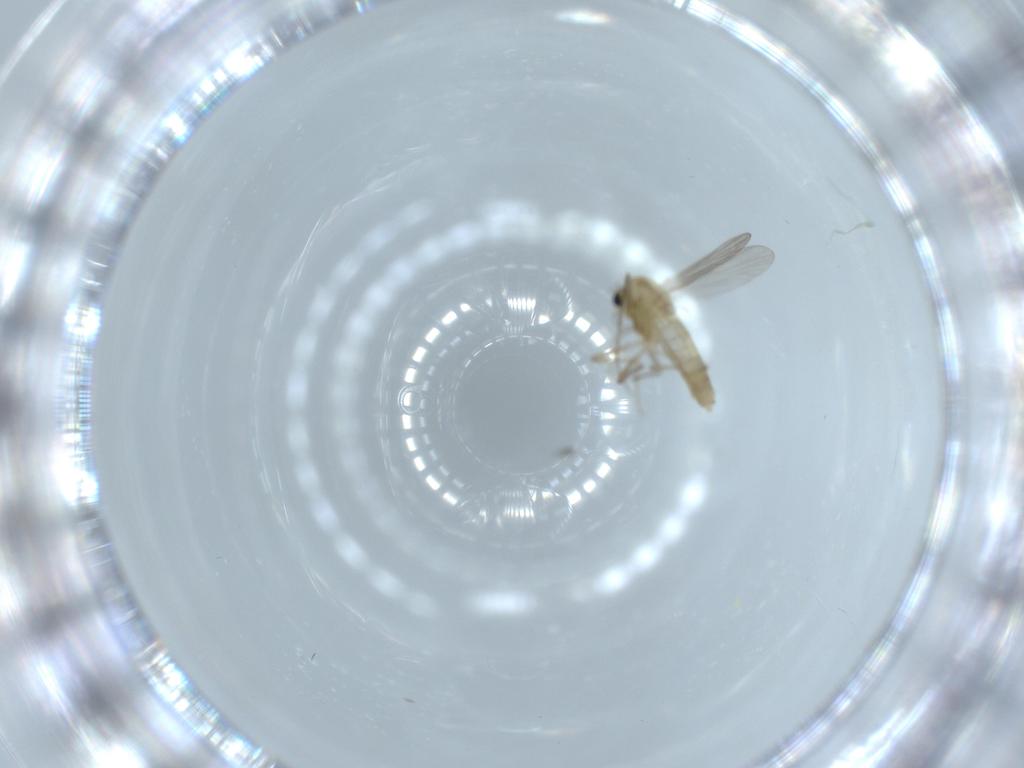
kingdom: Animalia
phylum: Arthropoda
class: Insecta
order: Diptera
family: Chironomidae
